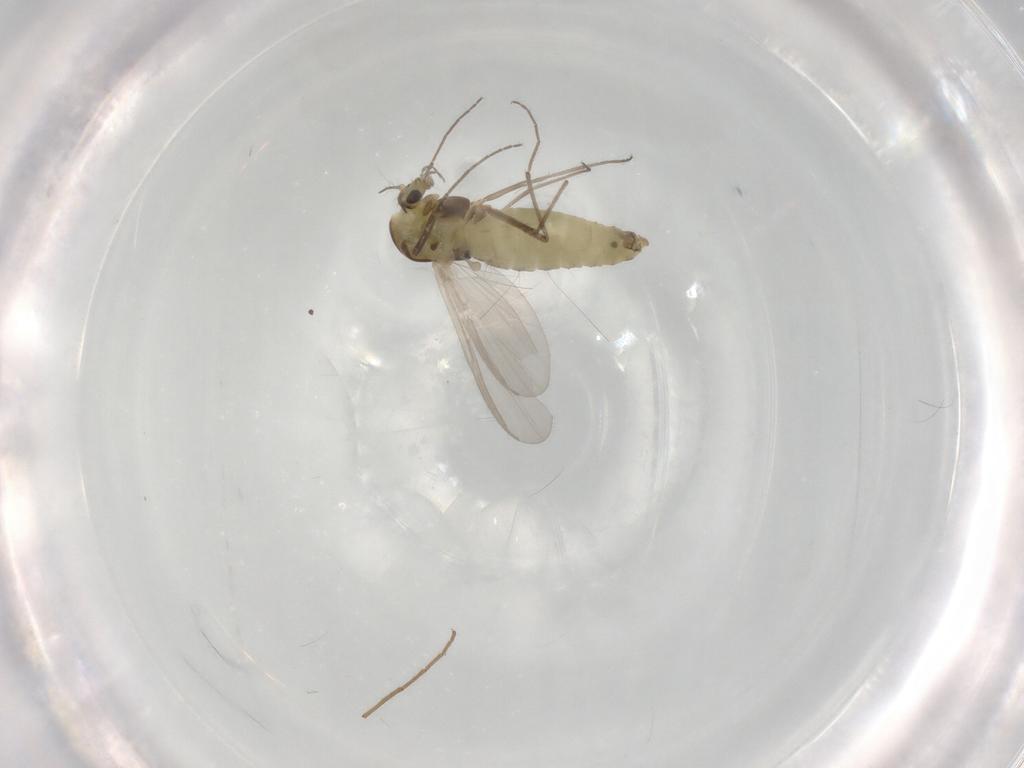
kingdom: Animalia
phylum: Arthropoda
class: Insecta
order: Diptera
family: Chironomidae
